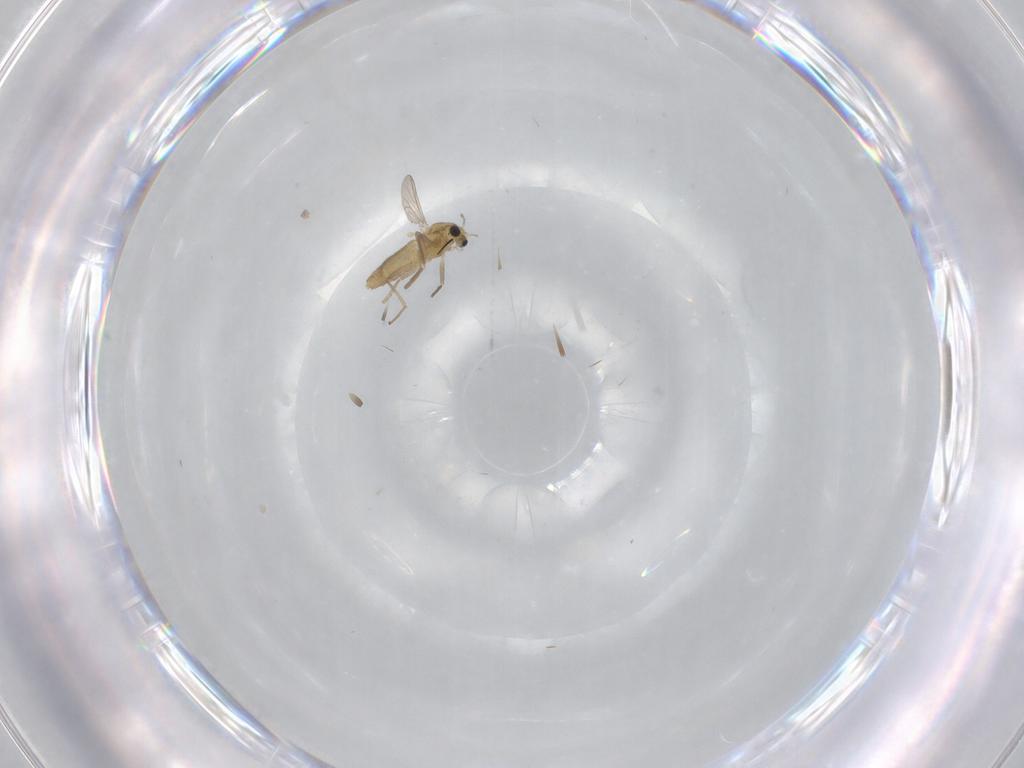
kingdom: Animalia
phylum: Arthropoda
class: Insecta
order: Diptera
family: Chironomidae
